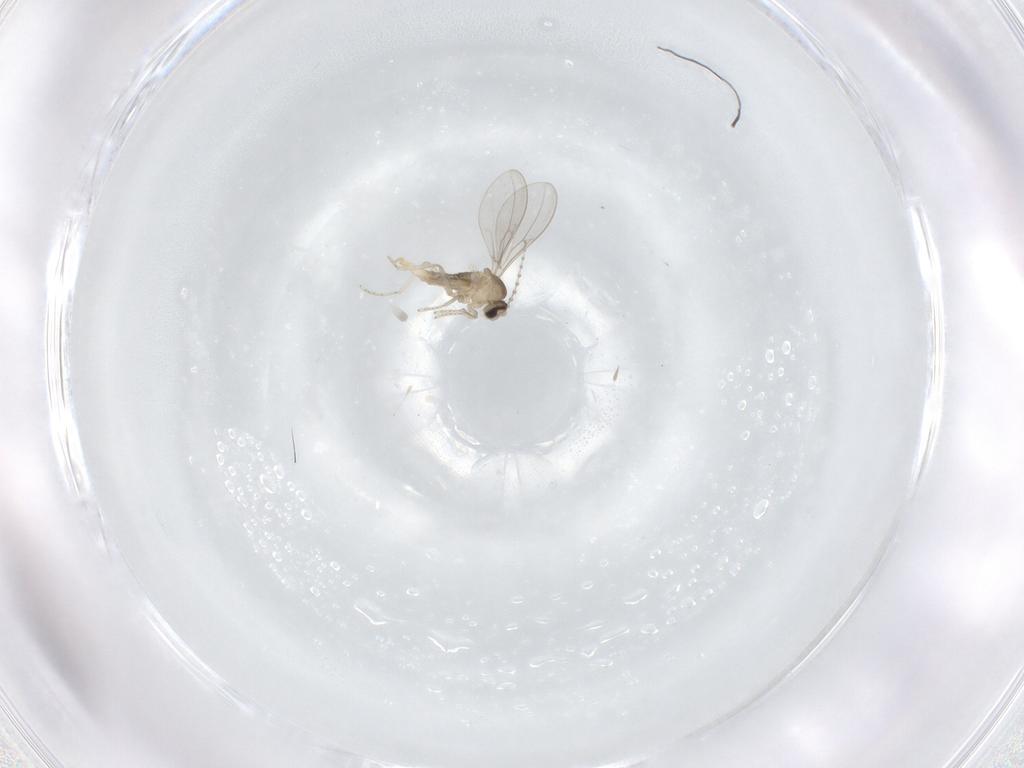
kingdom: Animalia
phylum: Arthropoda
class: Insecta
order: Diptera
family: Cecidomyiidae
